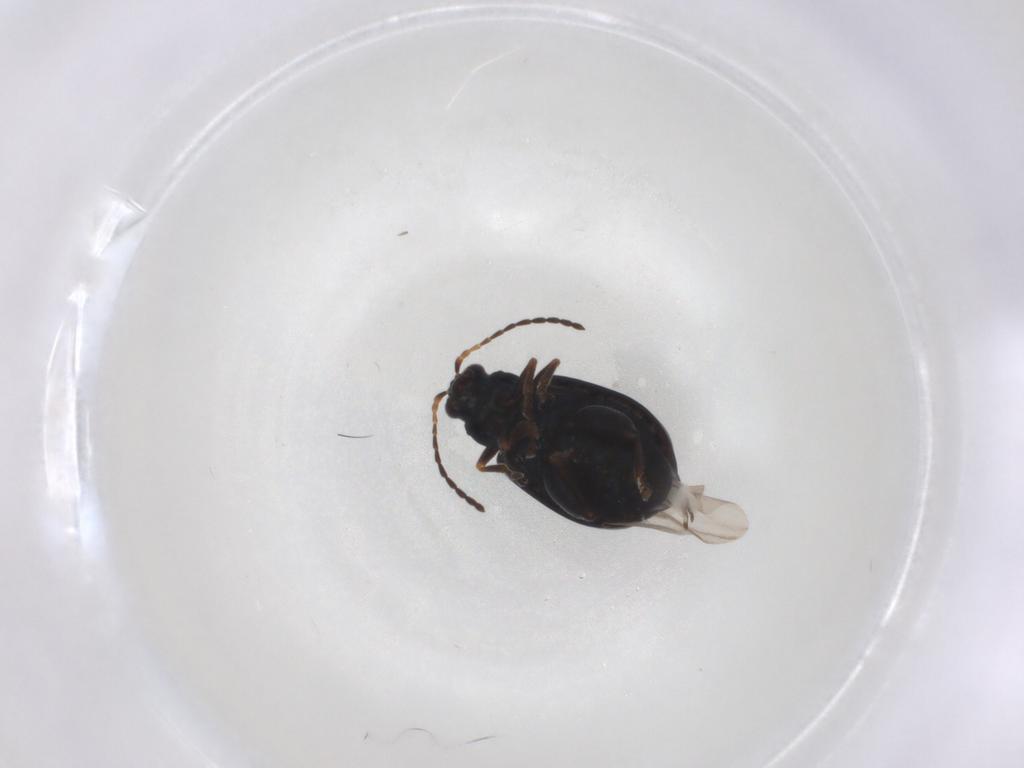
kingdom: Animalia
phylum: Arthropoda
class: Insecta
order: Coleoptera
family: Chrysomelidae
